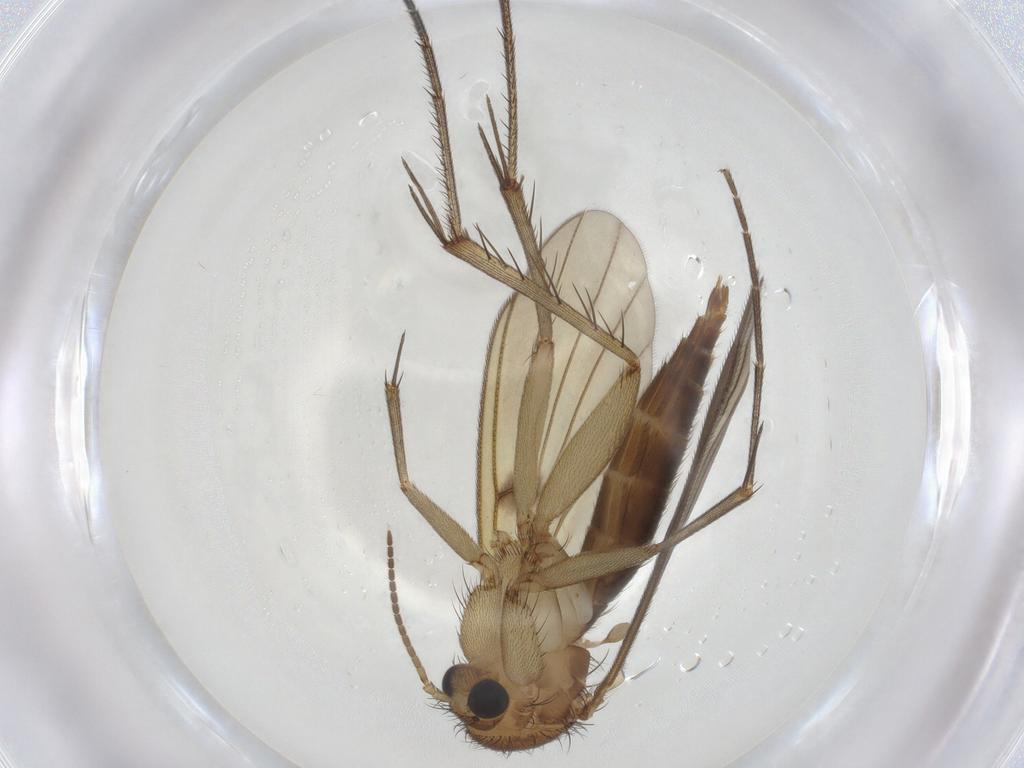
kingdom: Animalia
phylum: Arthropoda
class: Insecta
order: Diptera
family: Mycetophilidae
